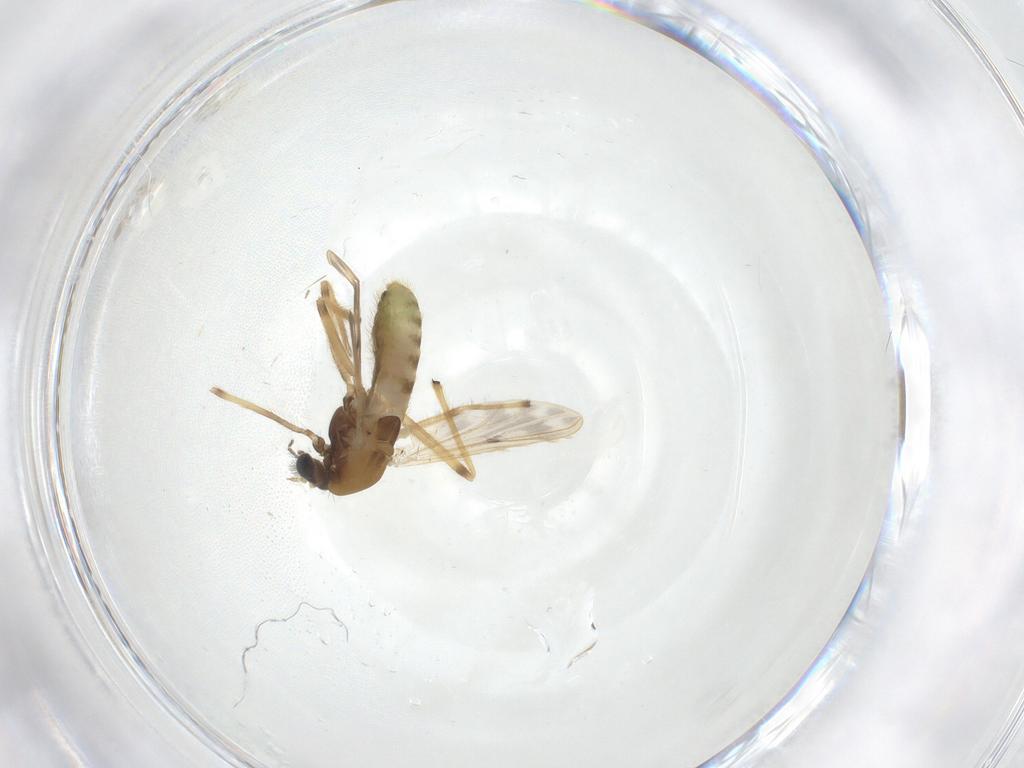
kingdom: Animalia
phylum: Arthropoda
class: Insecta
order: Diptera
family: Chironomidae
